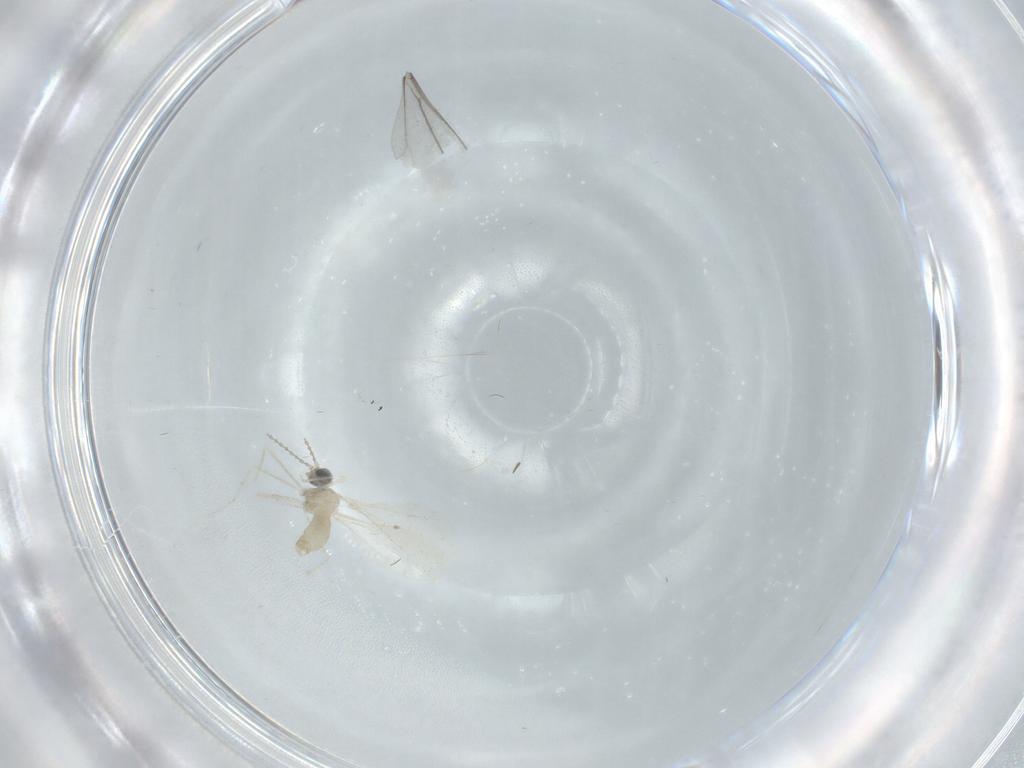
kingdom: Animalia
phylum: Arthropoda
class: Insecta
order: Diptera
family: Cecidomyiidae
